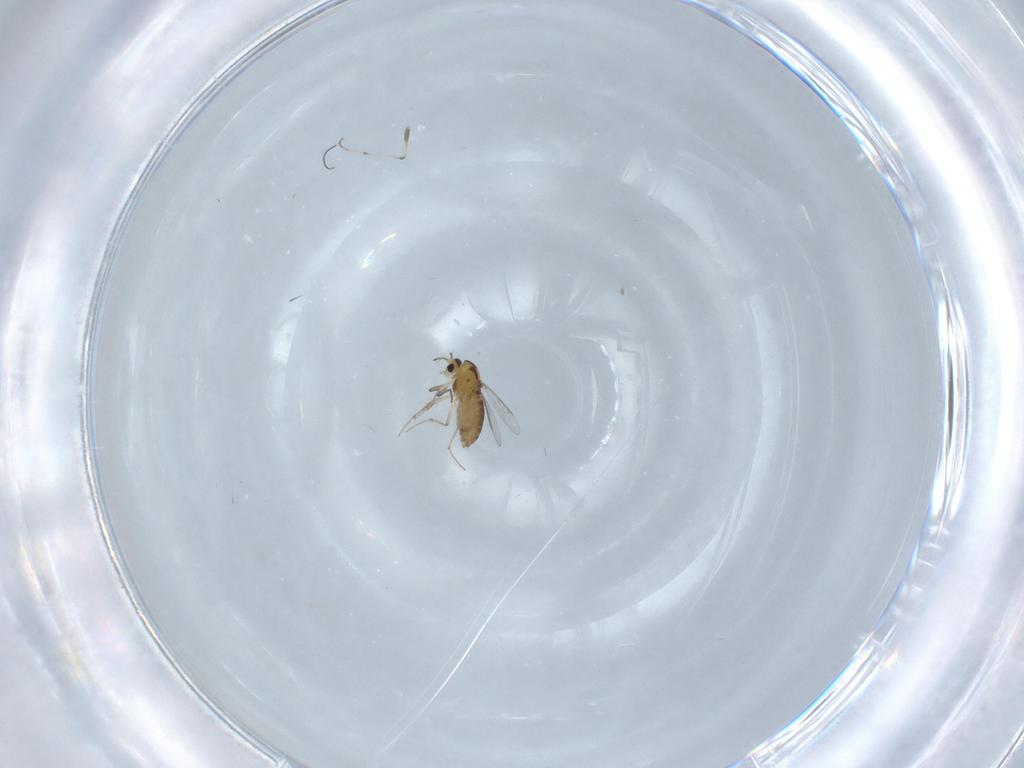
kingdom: Animalia
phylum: Arthropoda
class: Insecta
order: Diptera
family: Chironomidae
